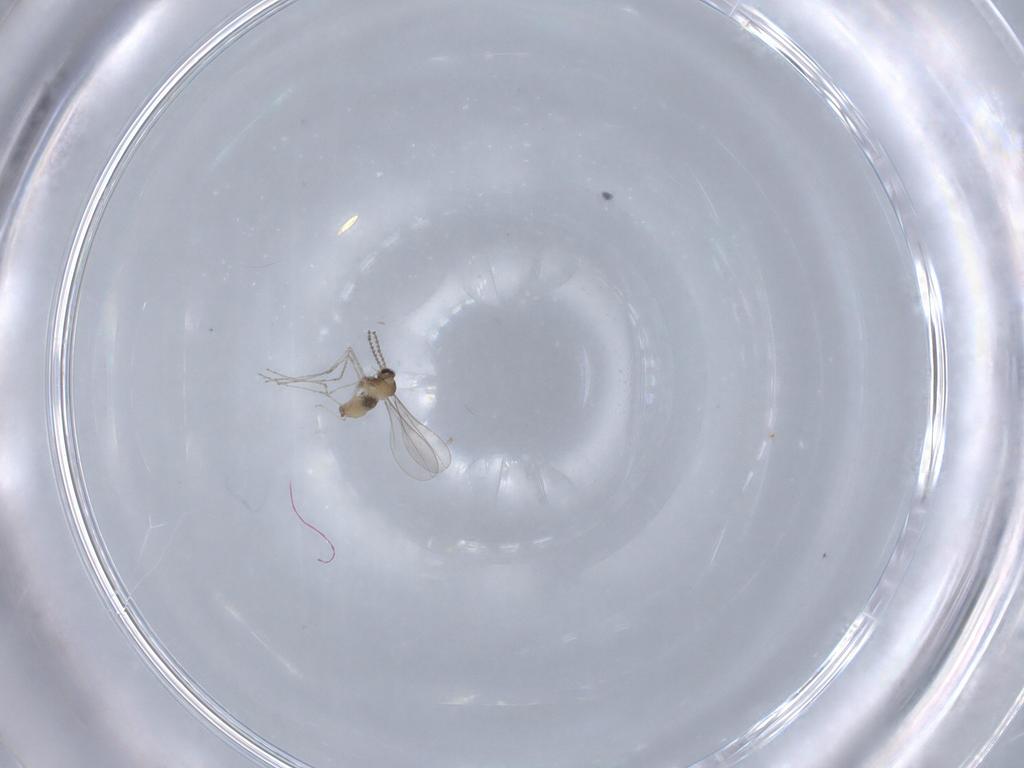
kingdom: Animalia
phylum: Arthropoda
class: Insecta
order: Diptera
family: Cecidomyiidae
